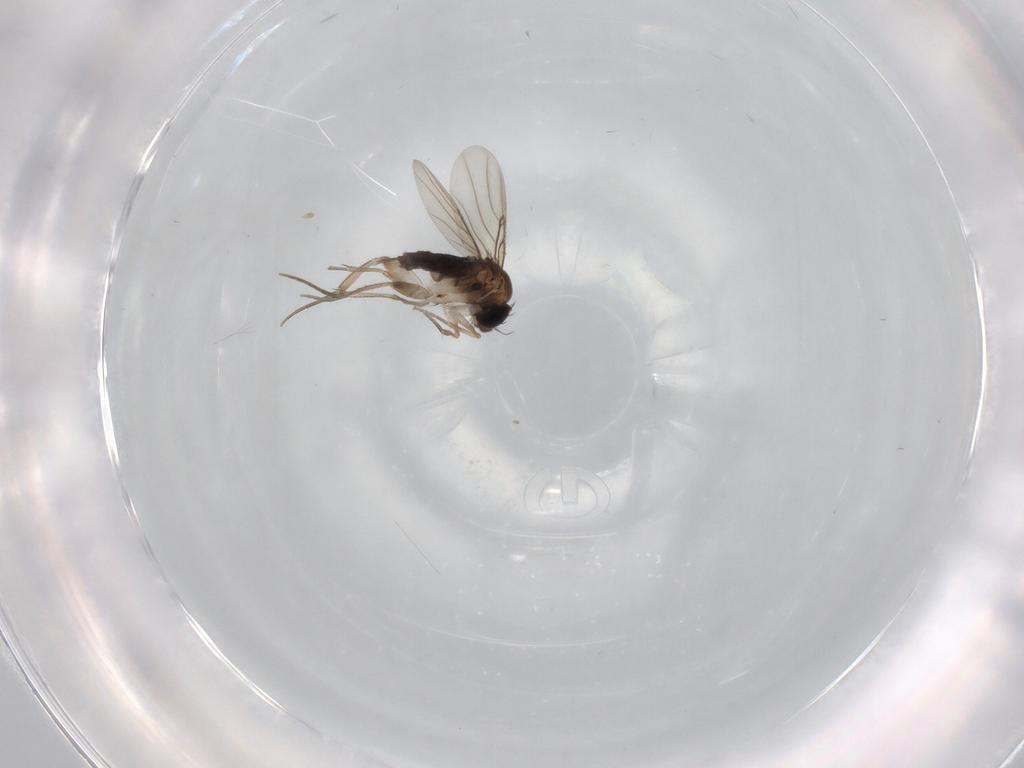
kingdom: Animalia
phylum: Arthropoda
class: Insecta
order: Diptera
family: Phoridae
